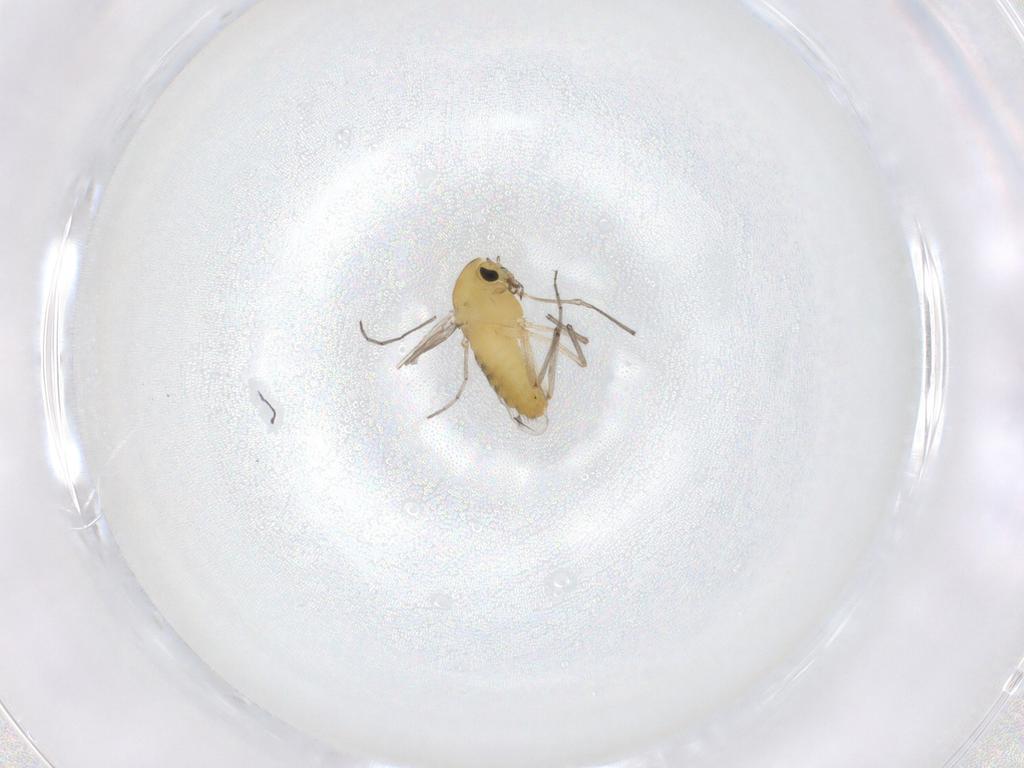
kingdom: Animalia
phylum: Arthropoda
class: Insecta
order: Diptera
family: Chironomidae
